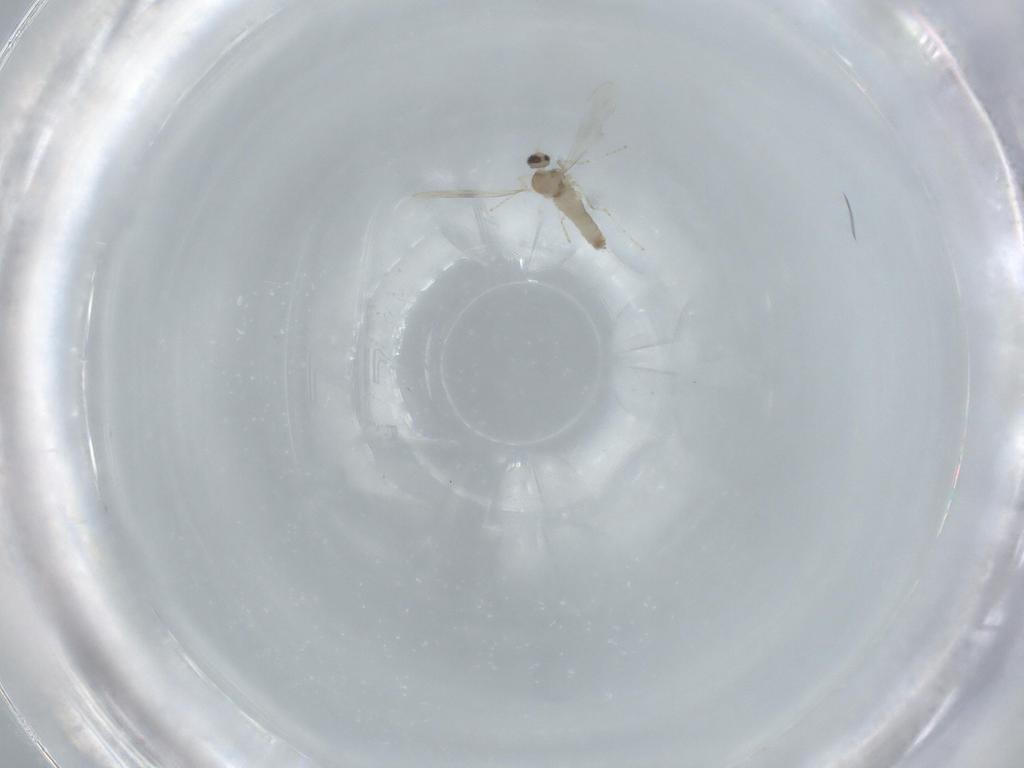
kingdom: Animalia
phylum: Arthropoda
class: Insecta
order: Diptera
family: Cecidomyiidae
